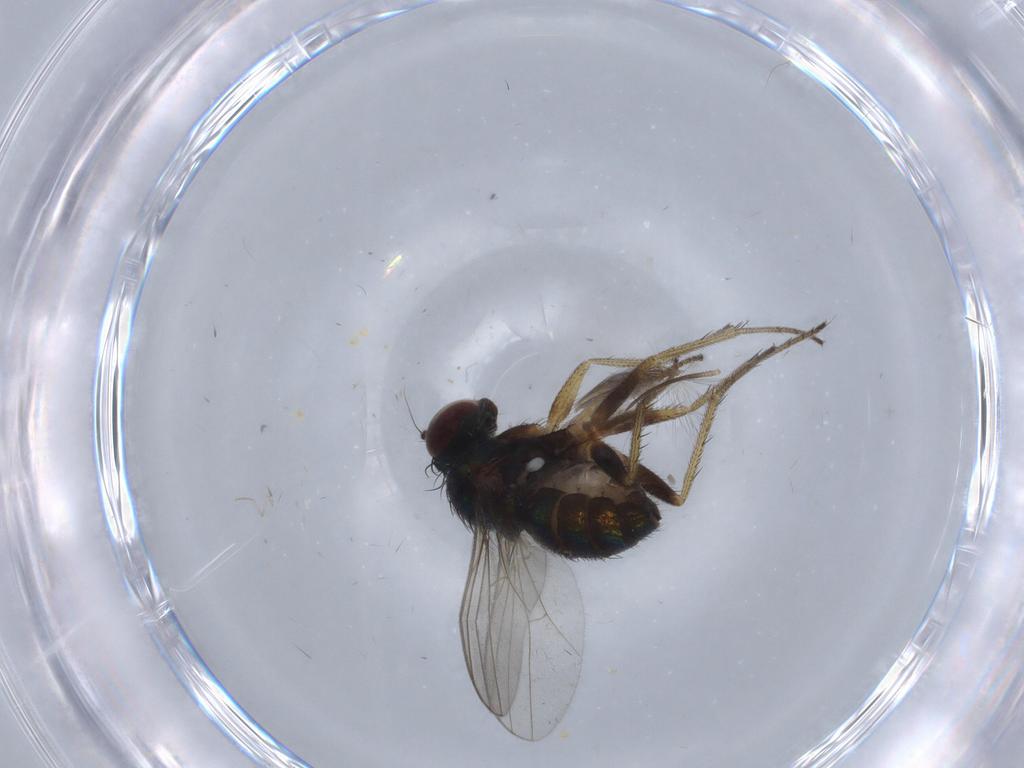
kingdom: Animalia
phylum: Arthropoda
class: Insecta
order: Diptera
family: Ceratopogonidae
